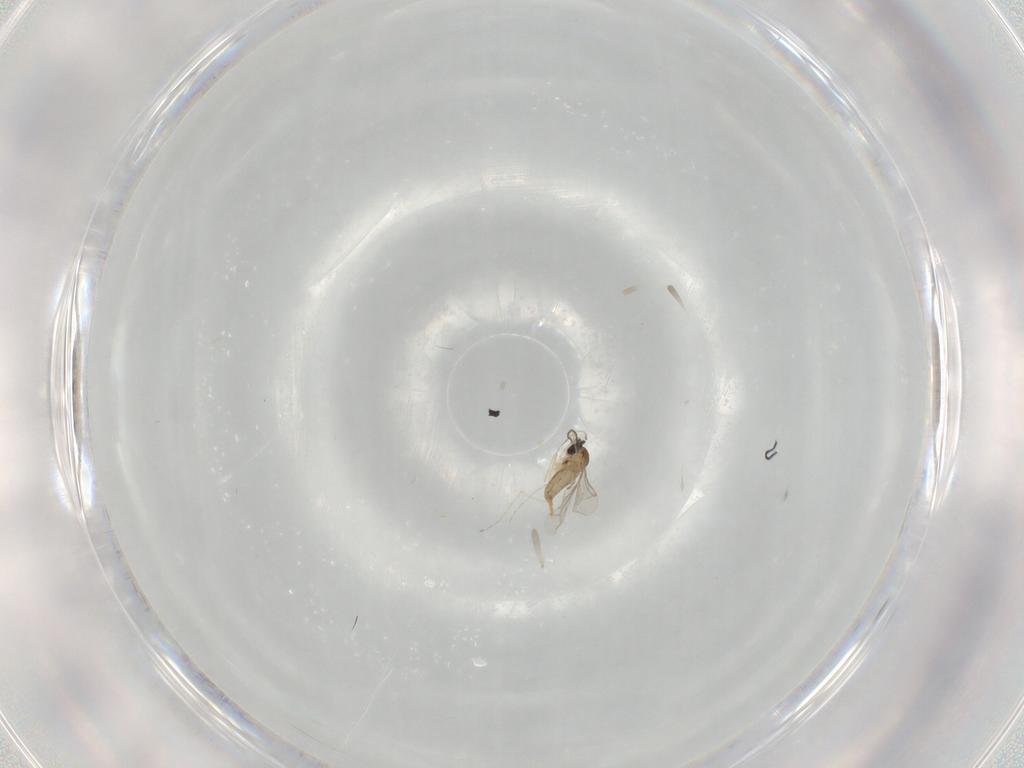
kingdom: Animalia
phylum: Arthropoda
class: Insecta
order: Diptera
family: Cecidomyiidae
